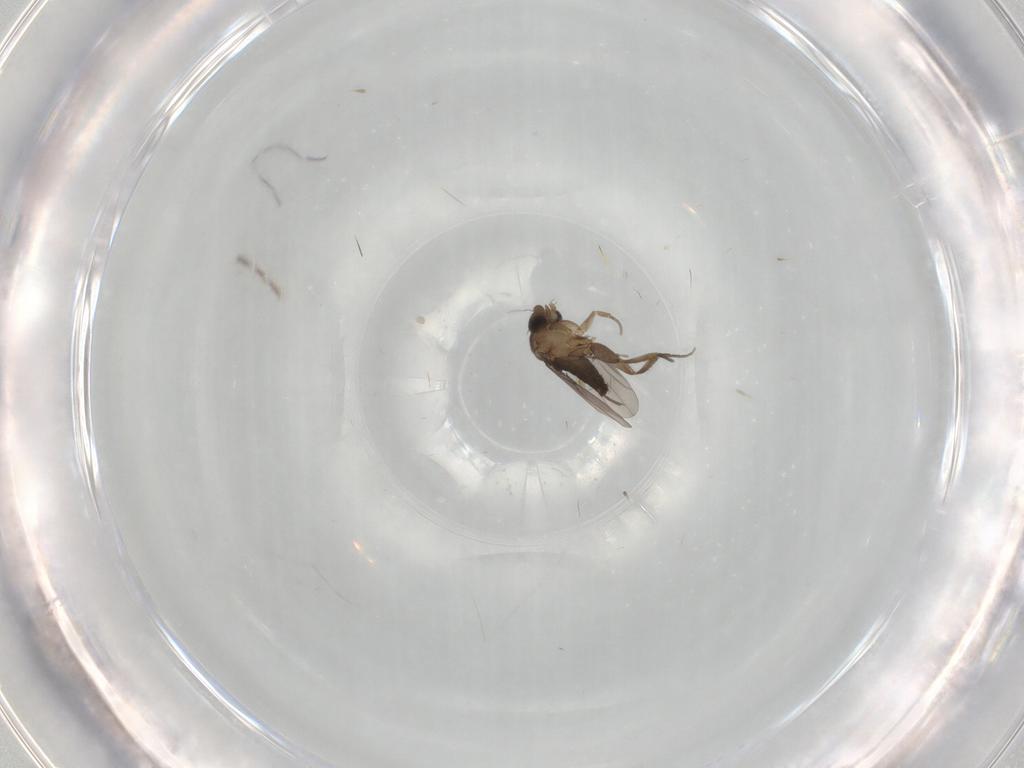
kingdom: Animalia
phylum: Arthropoda
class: Insecta
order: Diptera
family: Phoridae
